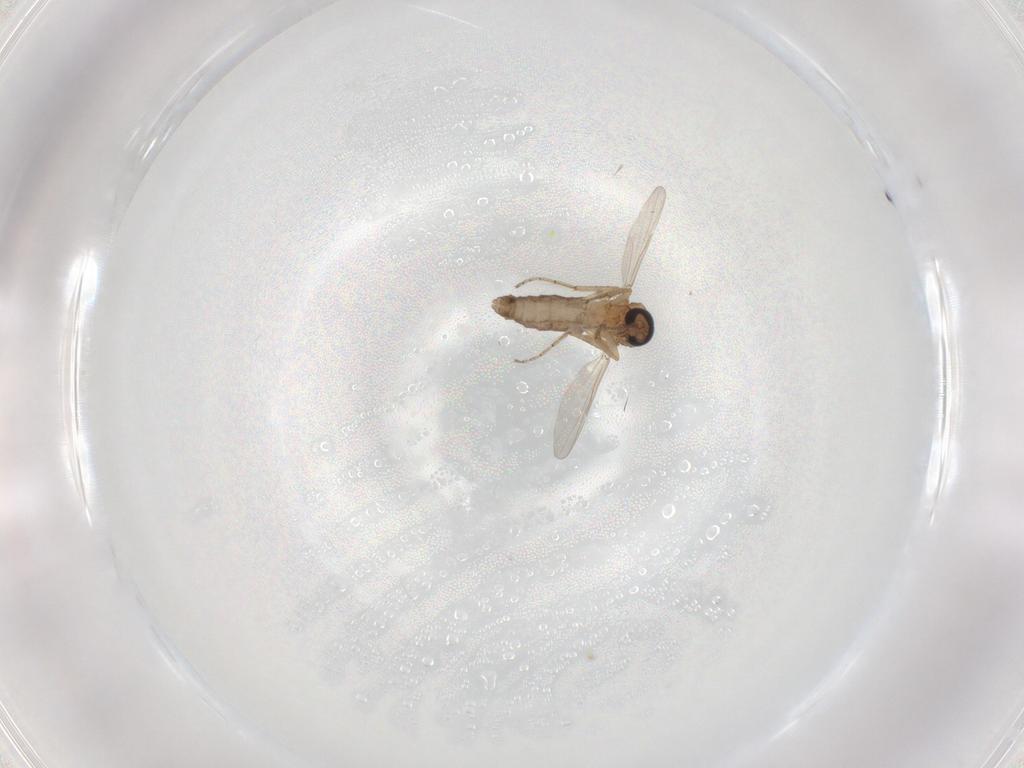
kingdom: Animalia
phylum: Arthropoda
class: Insecta
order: Diptera
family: Ceratopogonidae
